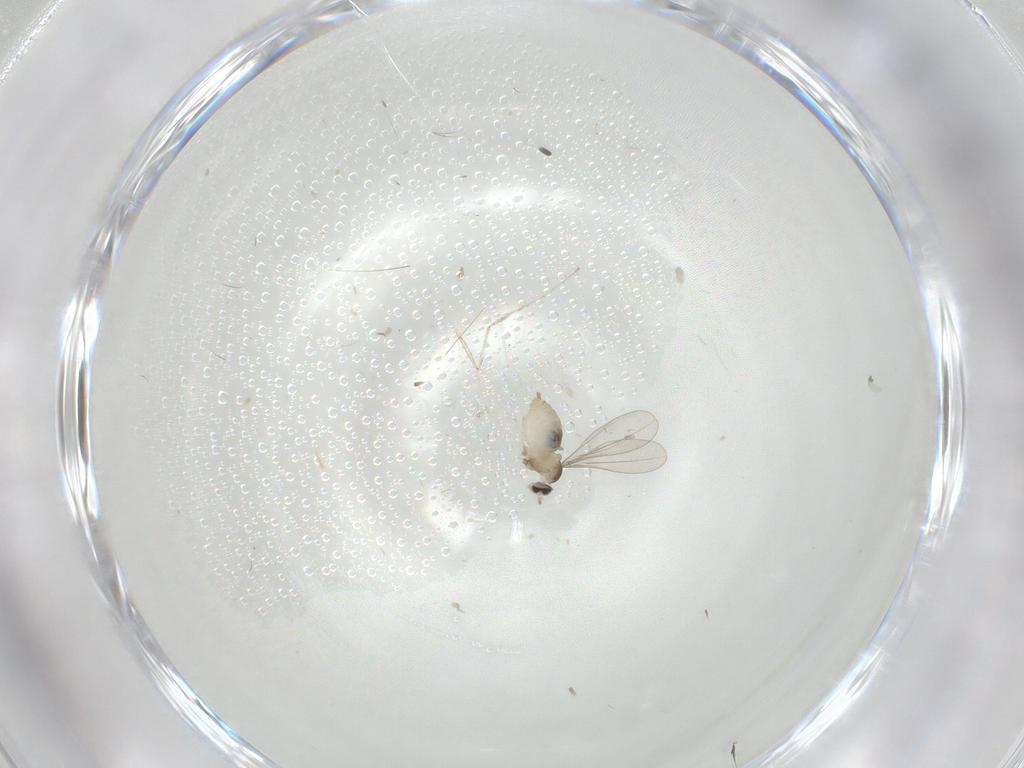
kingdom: Animalia
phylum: Arthropoda
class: Insecta
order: Diptera
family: Cecidomyiidae
